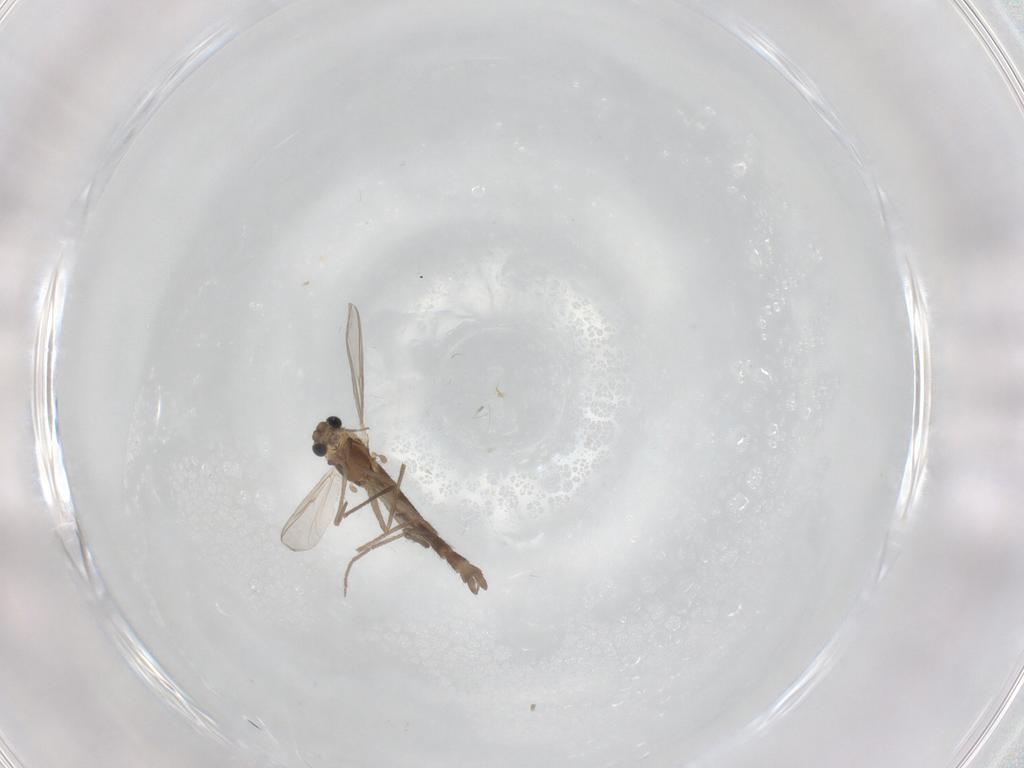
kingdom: Animalia
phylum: Arthropoda
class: Insecta
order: Diptera
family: Chironomidae
